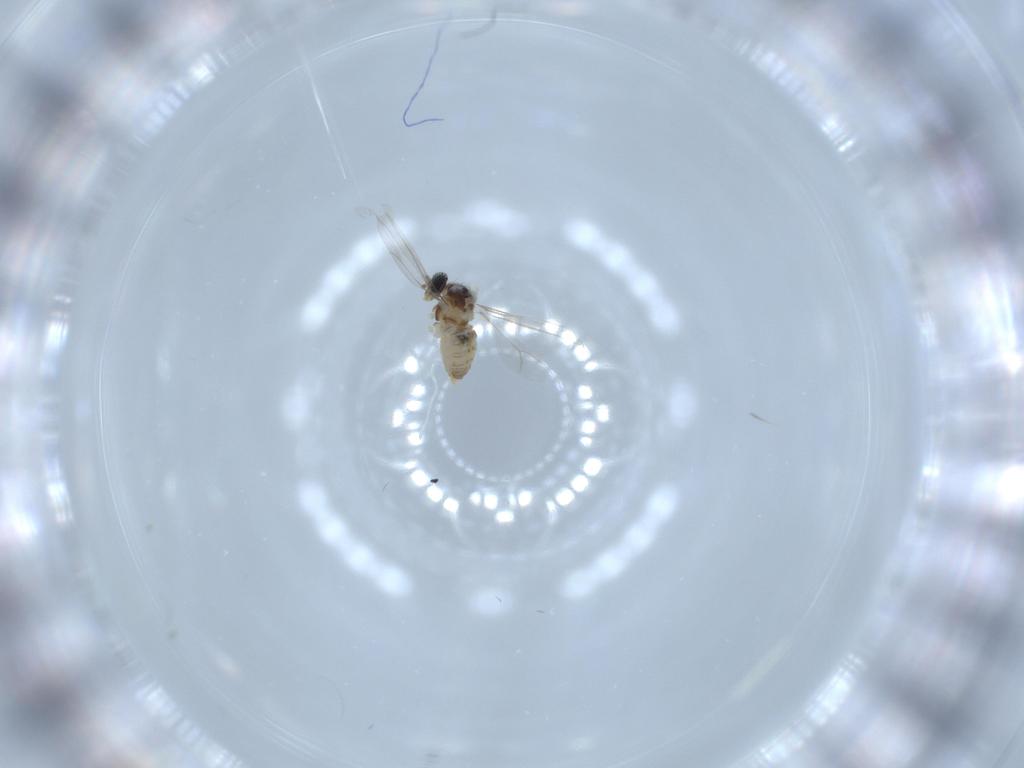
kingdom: Animalia
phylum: Arthropoda
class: Insecta
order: Diptera
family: Cecidomyiidae
